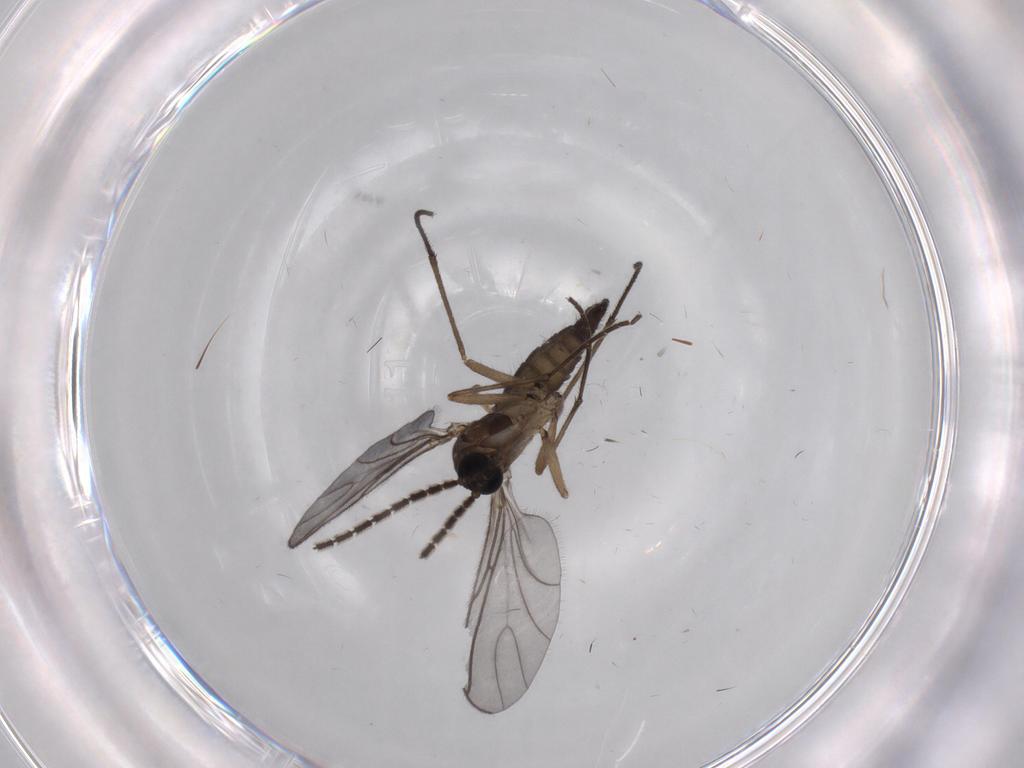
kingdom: Animalia
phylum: Arthropoda
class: Insecta
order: Diptera
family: Sciaridae
